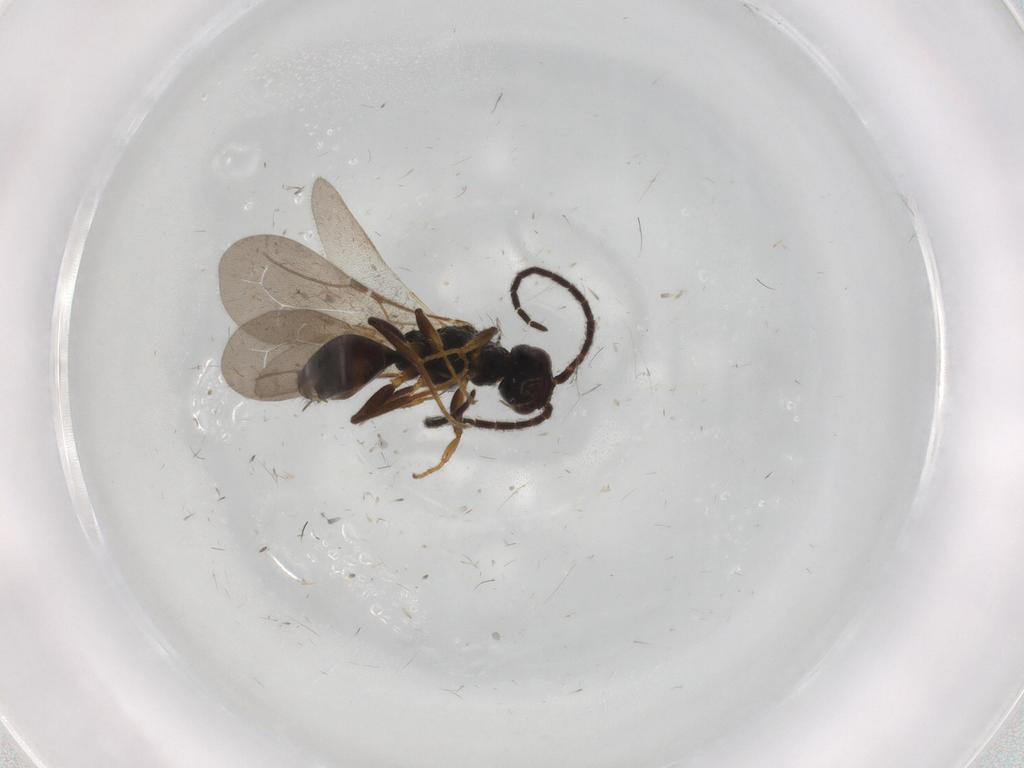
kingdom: Animalia
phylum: Arthropoda
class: Insecta
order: Hymenoptera
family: Bethylidae
